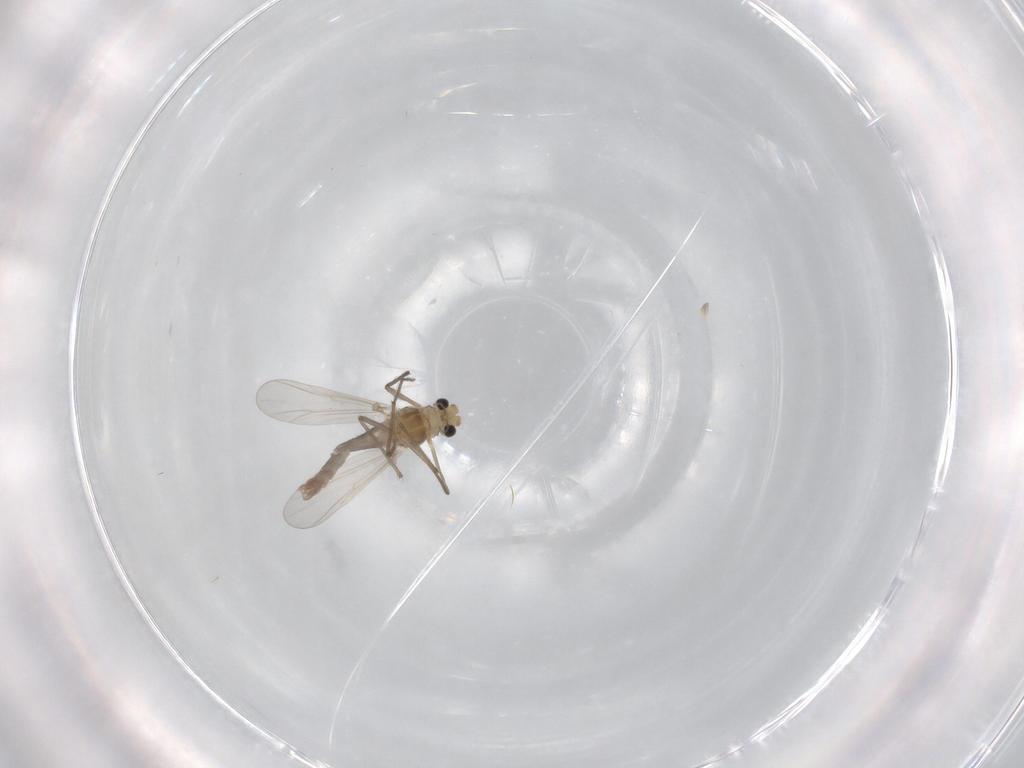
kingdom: Animalia
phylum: Arthropoda
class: Insecta
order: Diptera
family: Chironomidae
